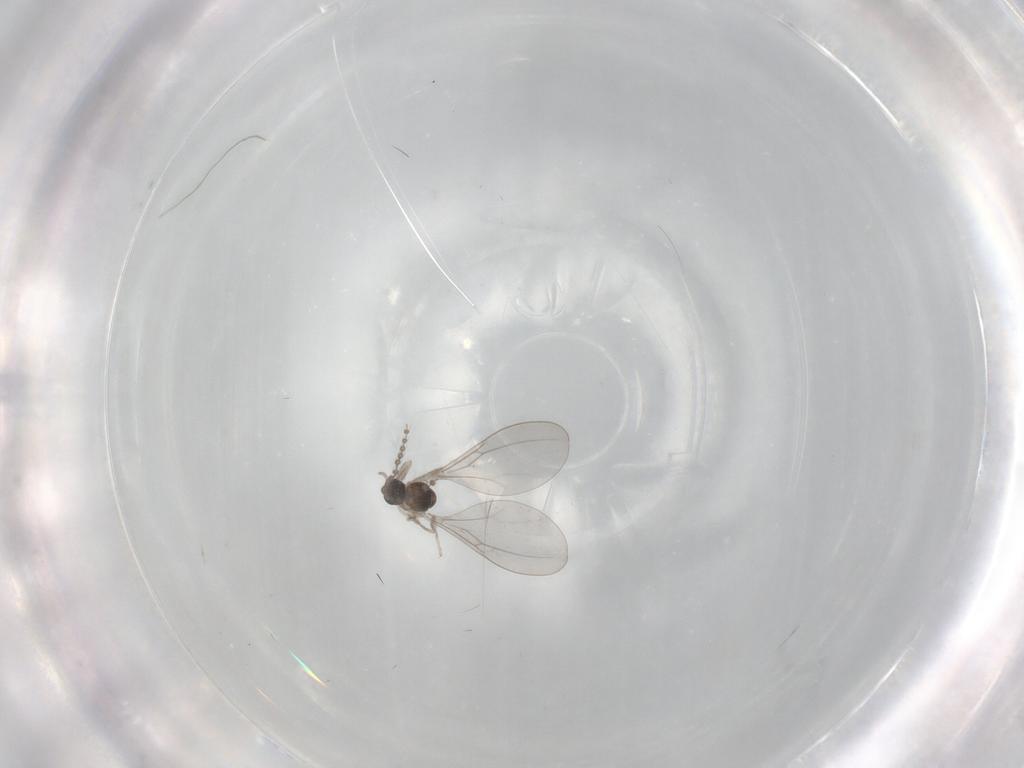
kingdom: Animalia
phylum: Arthropoda
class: Insecta
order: Diptera
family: Cecidomyiidae
